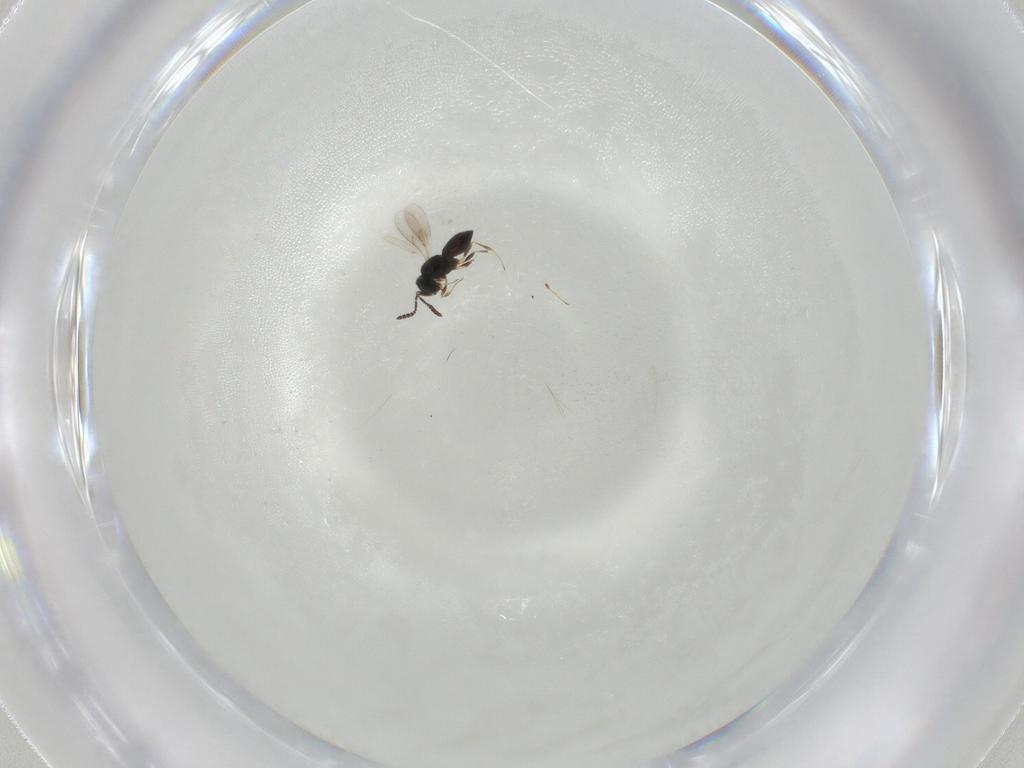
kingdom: Animalia
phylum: Arthropoda
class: Insecta
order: Hymenoptera
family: Scelionidae
